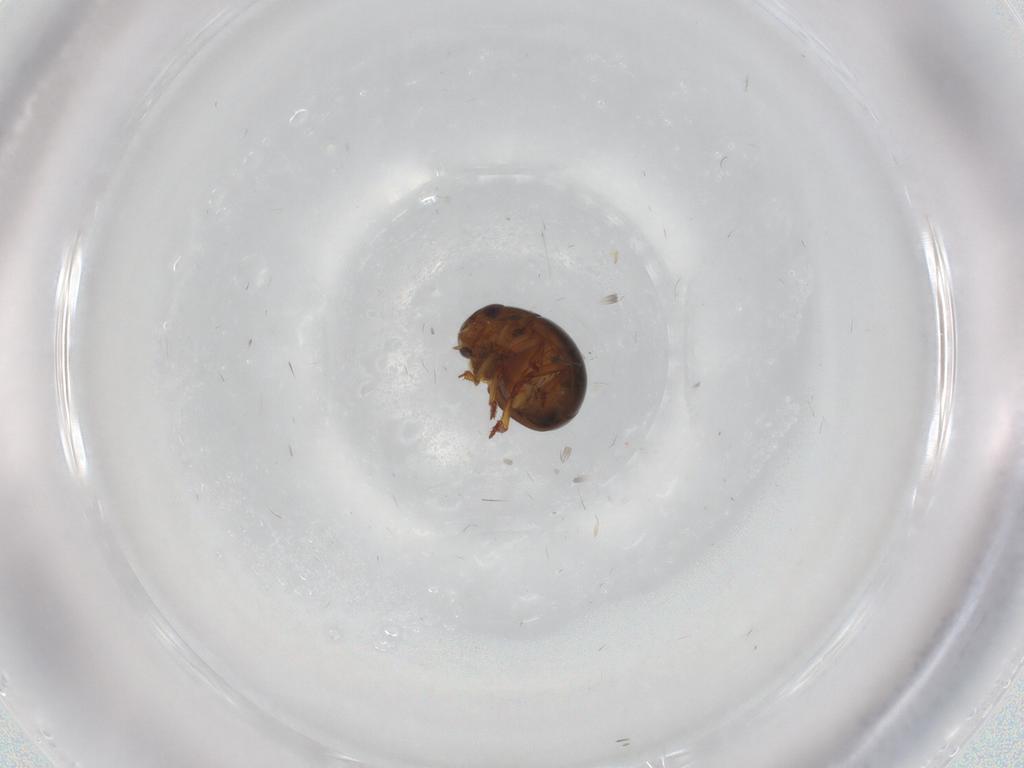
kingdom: Animalia
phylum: Arthropoda
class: Insecta
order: Coleoptera
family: Leiodidae
